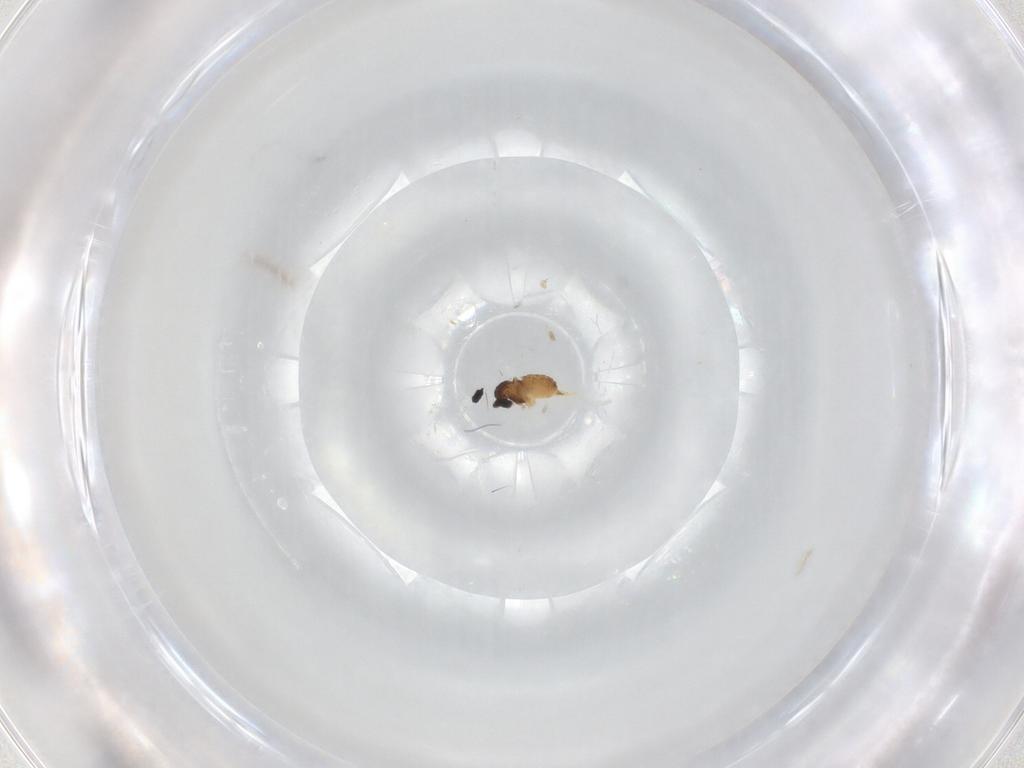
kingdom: Animalia
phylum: Arthropoda
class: Insecta
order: Diptera
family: Cecidomyiidae
